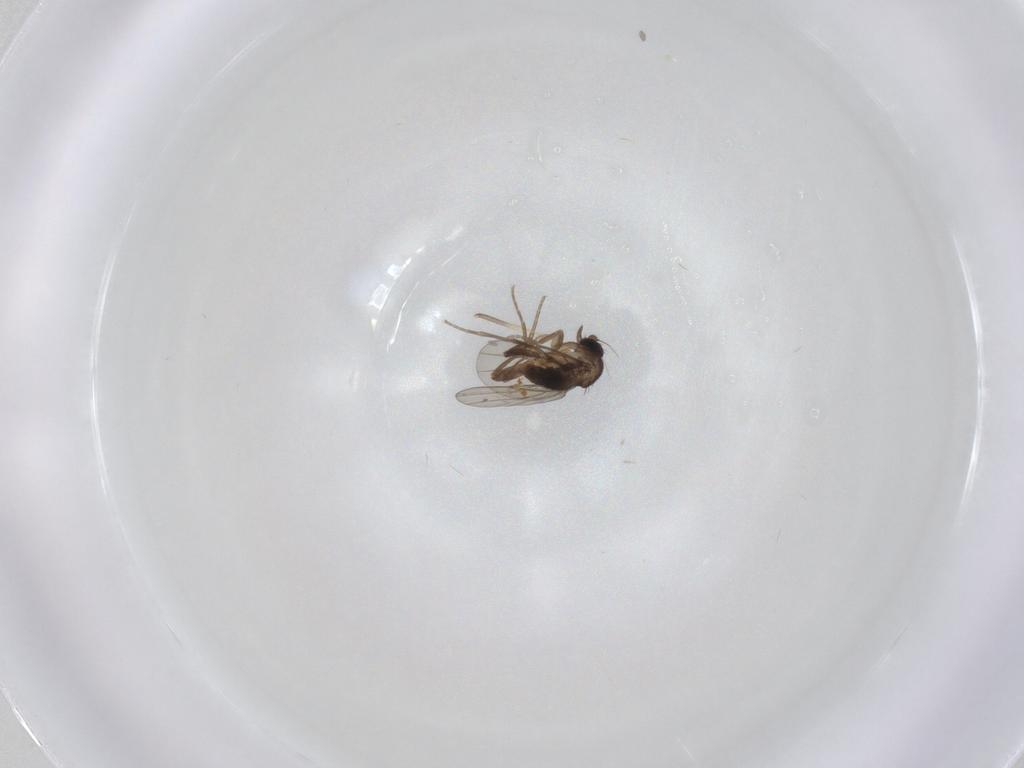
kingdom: Animalia
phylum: Arthropoda
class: Insecta
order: Diptera
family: Chironomidae
